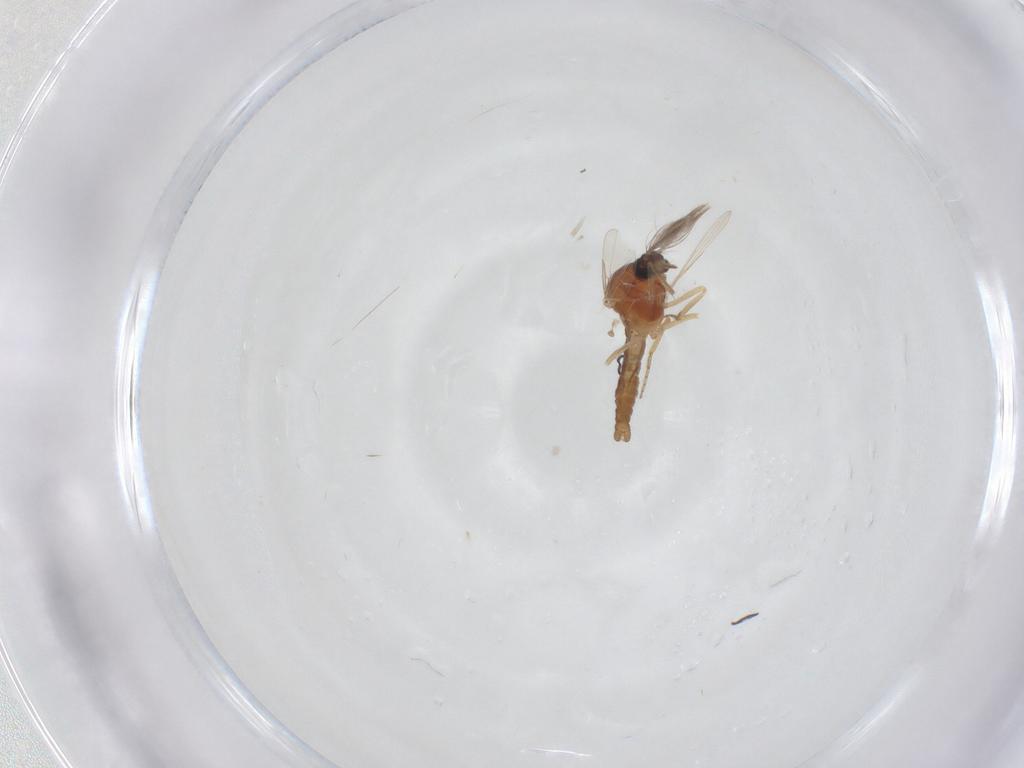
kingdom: Animalia
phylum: Arthropoda
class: Insecta
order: Diptera
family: Ceratopogonidae
